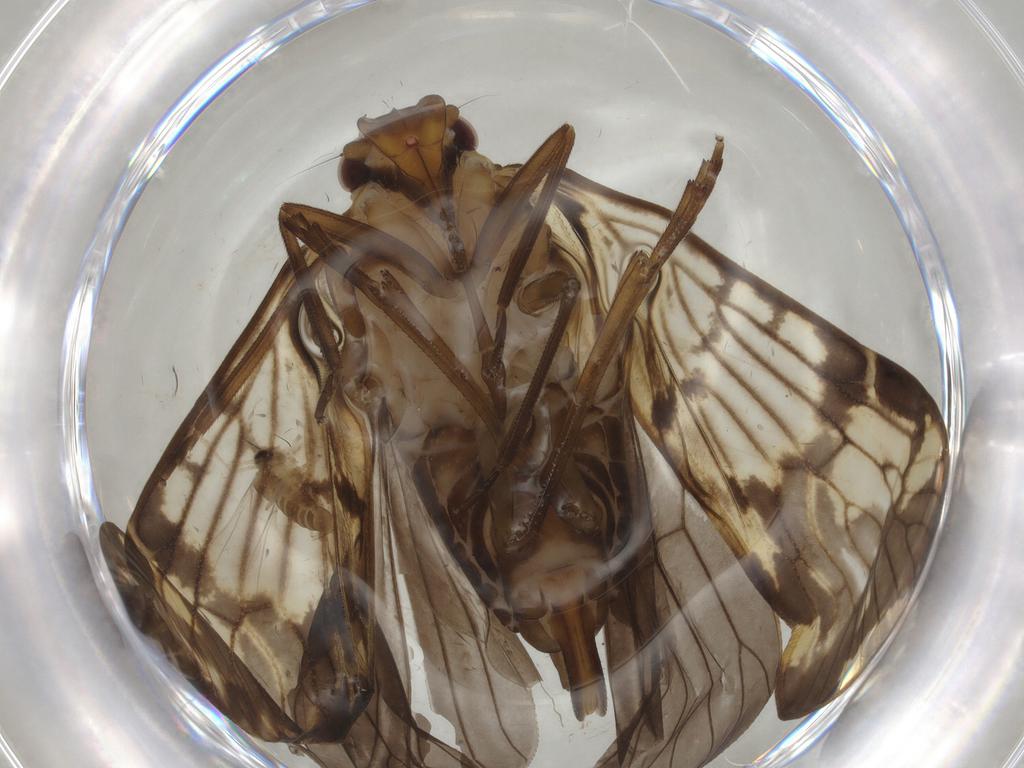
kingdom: Animalia
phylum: Arthropoda
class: Insecta
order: Hemiptera
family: Cixiidae
